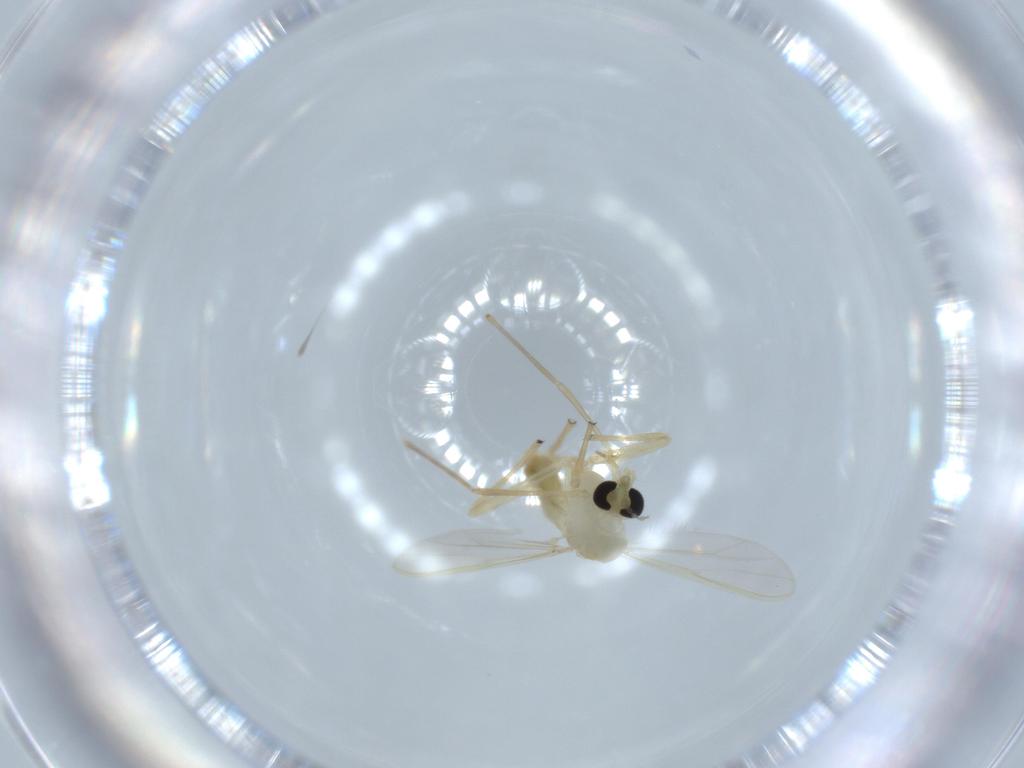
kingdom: Animalia
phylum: Arthropoda
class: Insecta
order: Diptera
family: Chironomidae
